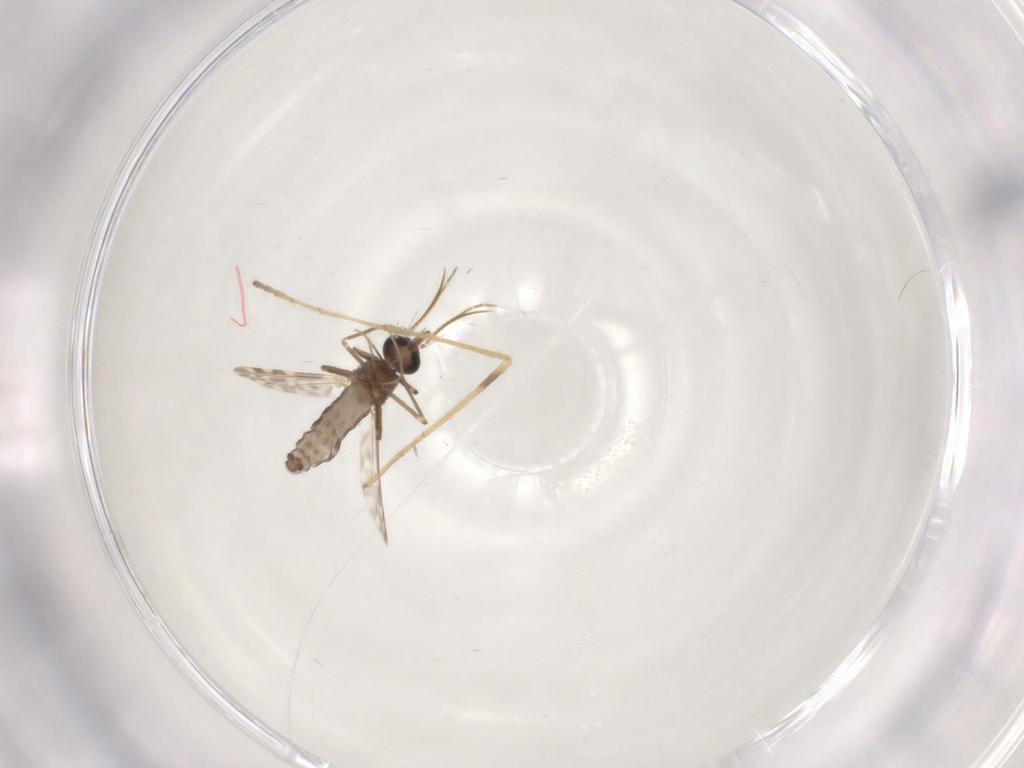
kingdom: Animalia
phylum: Arthropoda
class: Insecta
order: Diptera
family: Ceratopogonidae
